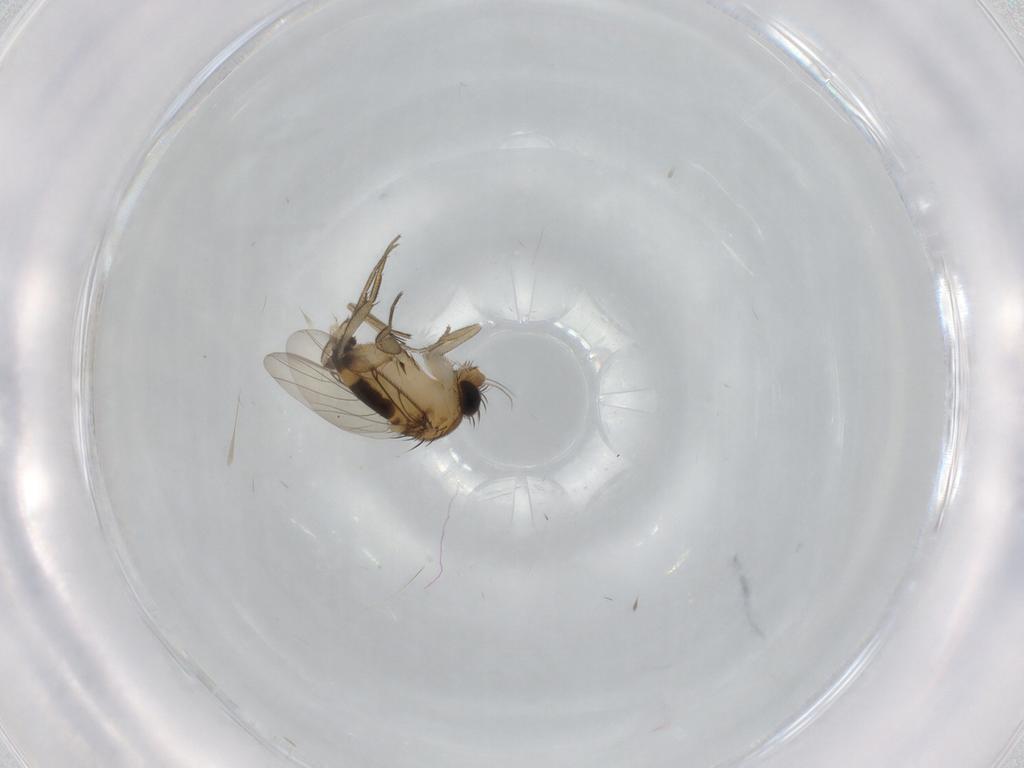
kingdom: Animalia
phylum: Arthropoda
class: Insecta
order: Diptera
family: Phoridae
